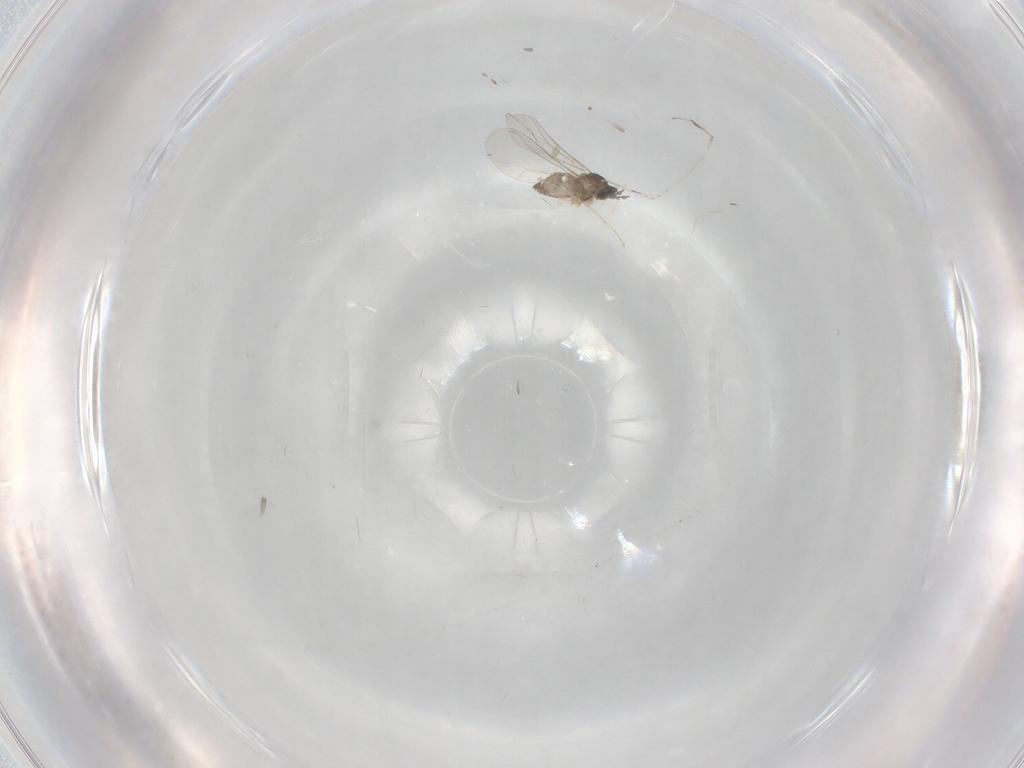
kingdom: Animalia
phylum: Arthropoda
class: Insecta
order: Diptera
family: Cecidomyiidae
